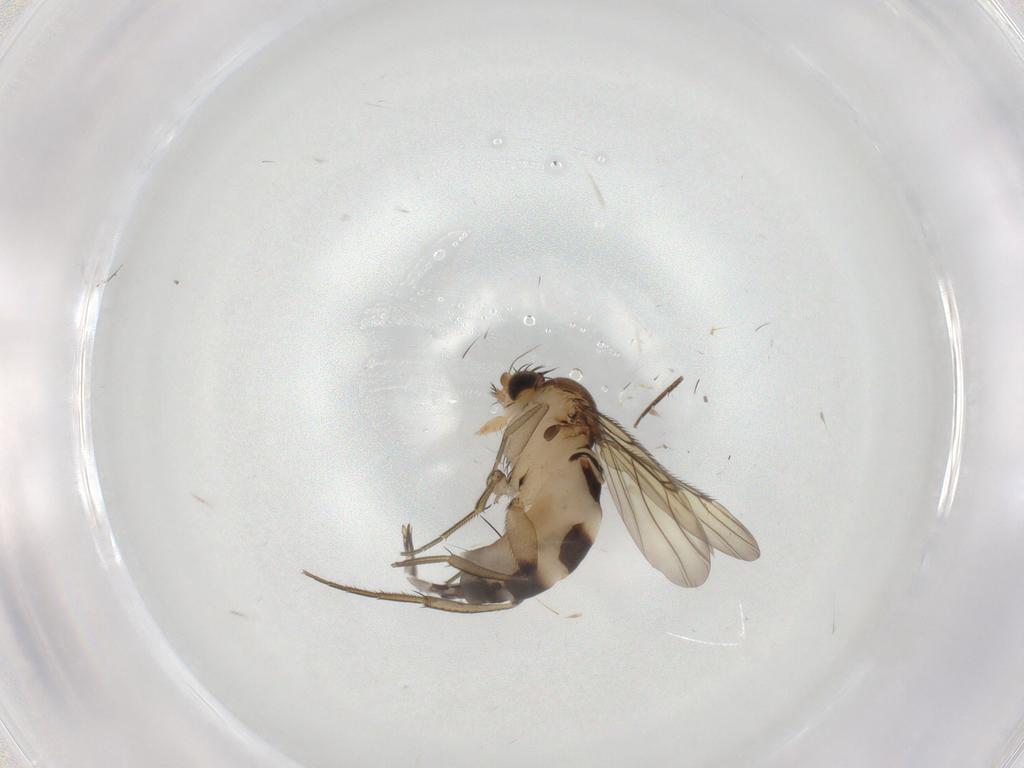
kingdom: Animalia
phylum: Arthropoda
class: Insecta
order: Diptera
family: Phoridae
